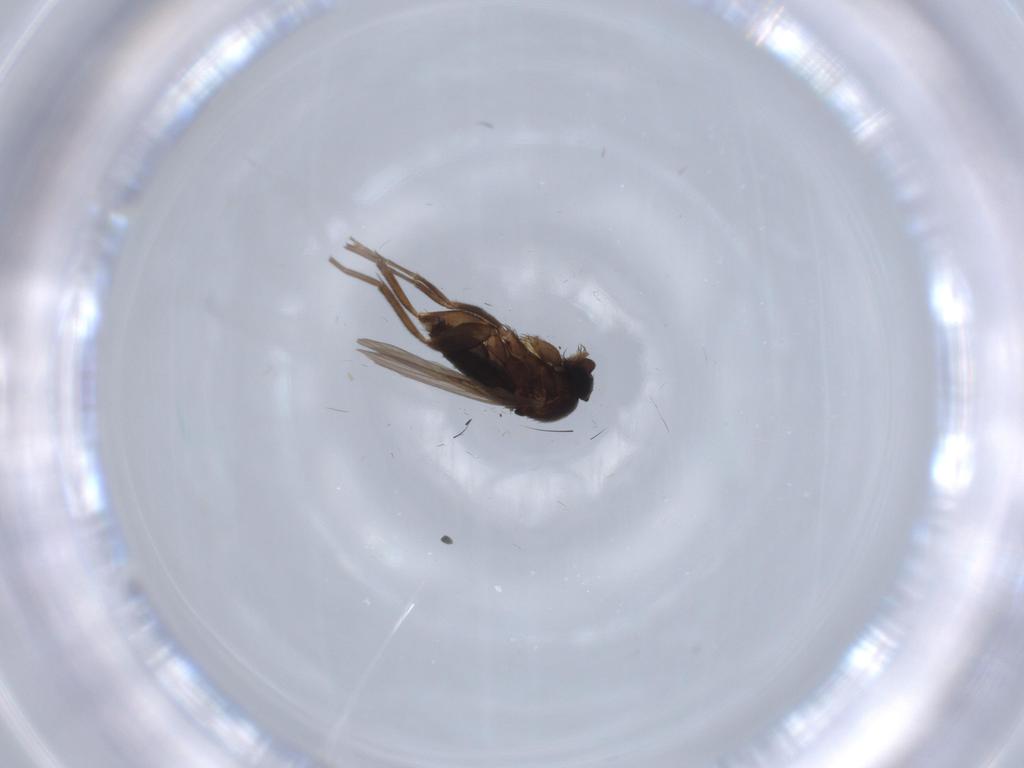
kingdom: Animalia
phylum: Arthropoda
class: Insecta
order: Diptera
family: Phoridae
